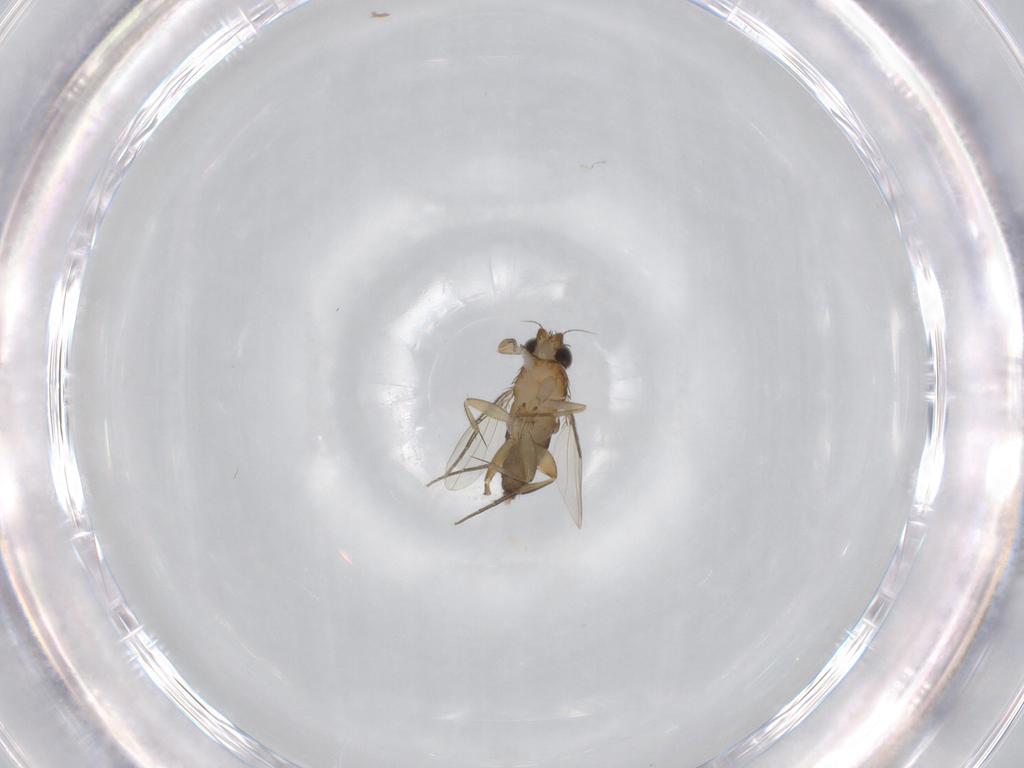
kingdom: Animalia
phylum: Arthropoda
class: Insecta
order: Diptera
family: Phoridae
